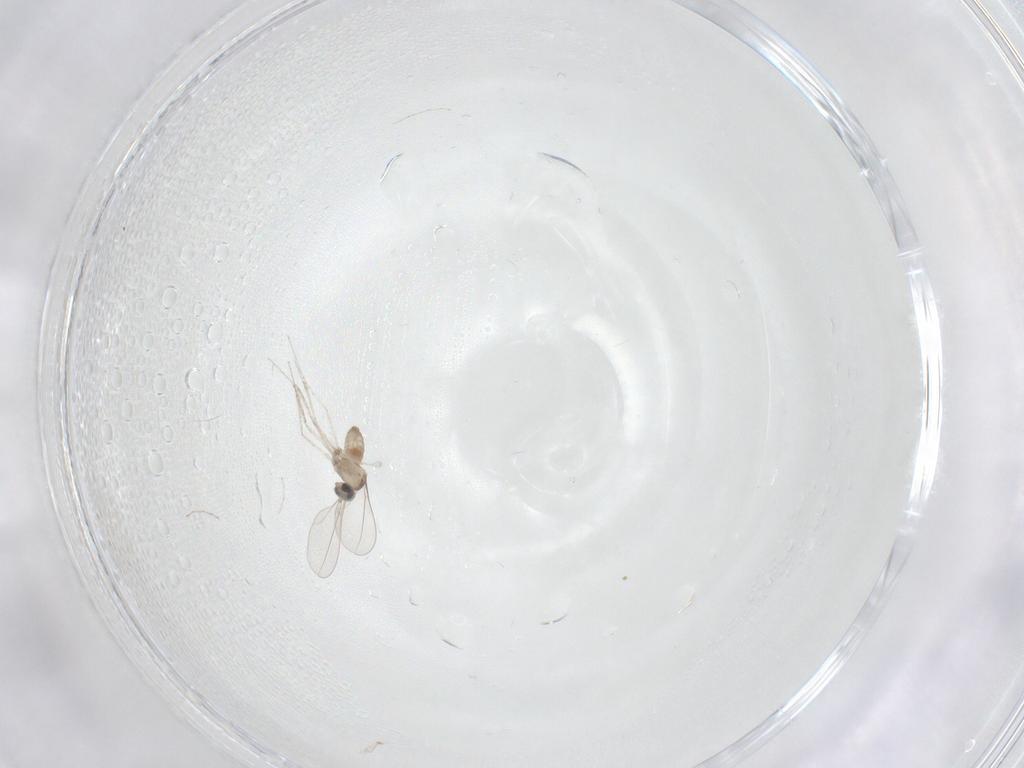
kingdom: Animalia
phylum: Arthropoda
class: Insecta
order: Diptera
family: Cecidomyiidae
